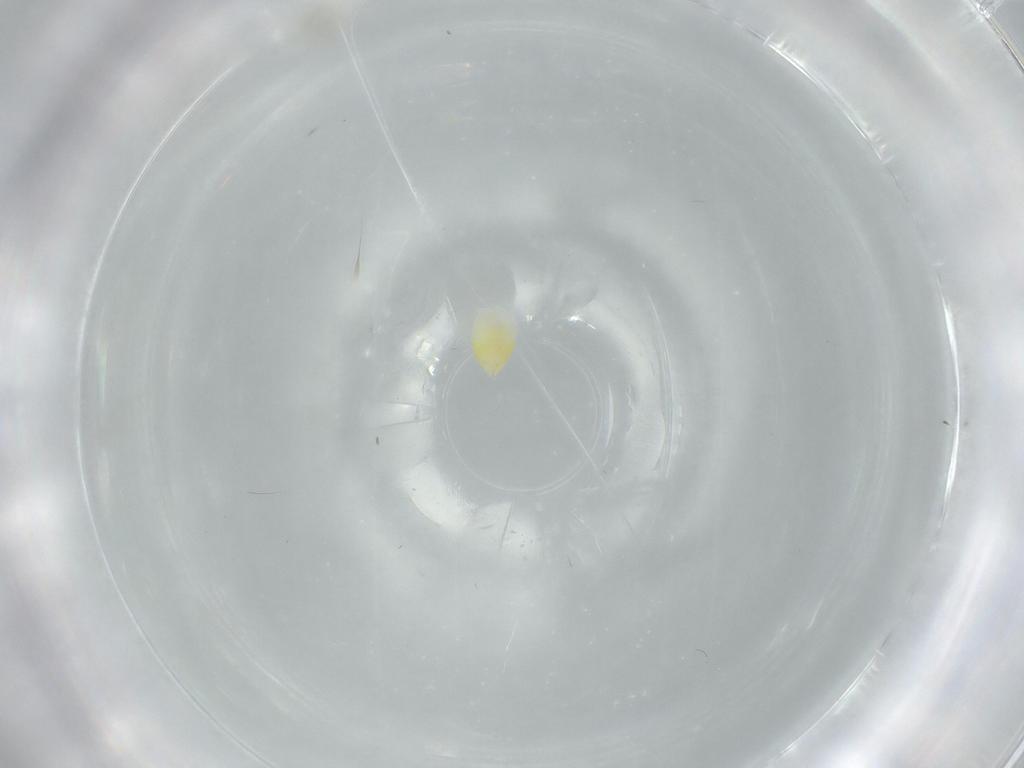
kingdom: Animalia
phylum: Arthropoda
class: Insecta
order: Hemiptera
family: Aleyrodidae
